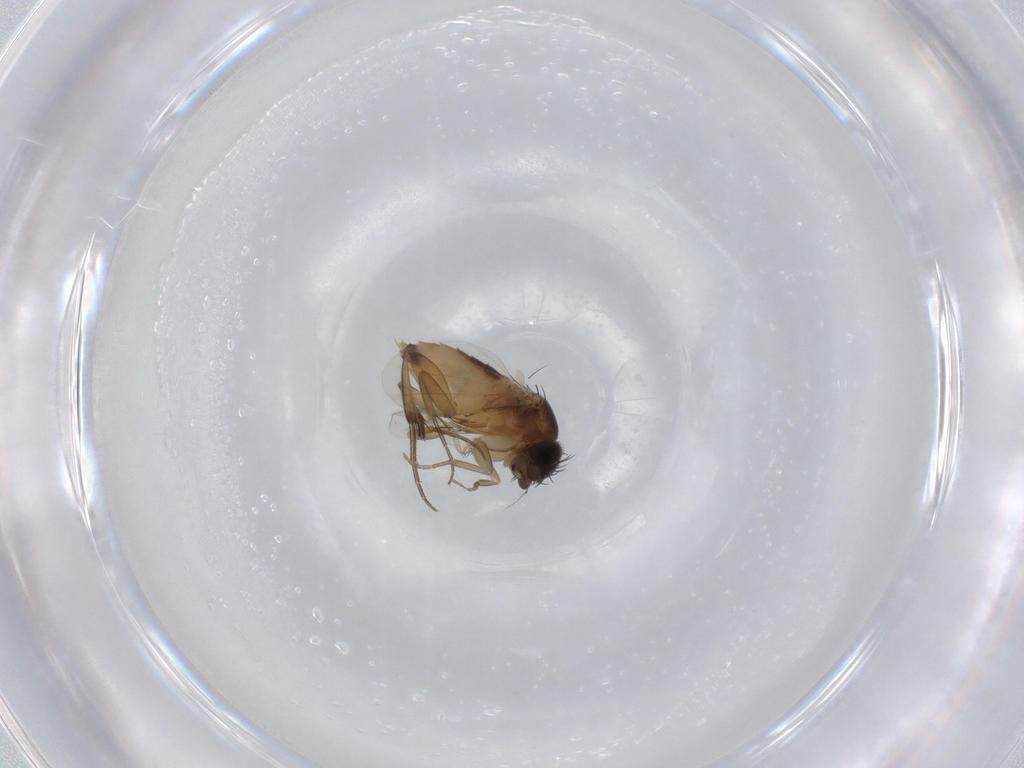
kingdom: Animalia
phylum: Arthropoda
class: Insecta
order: Diptera
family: Phoridae
